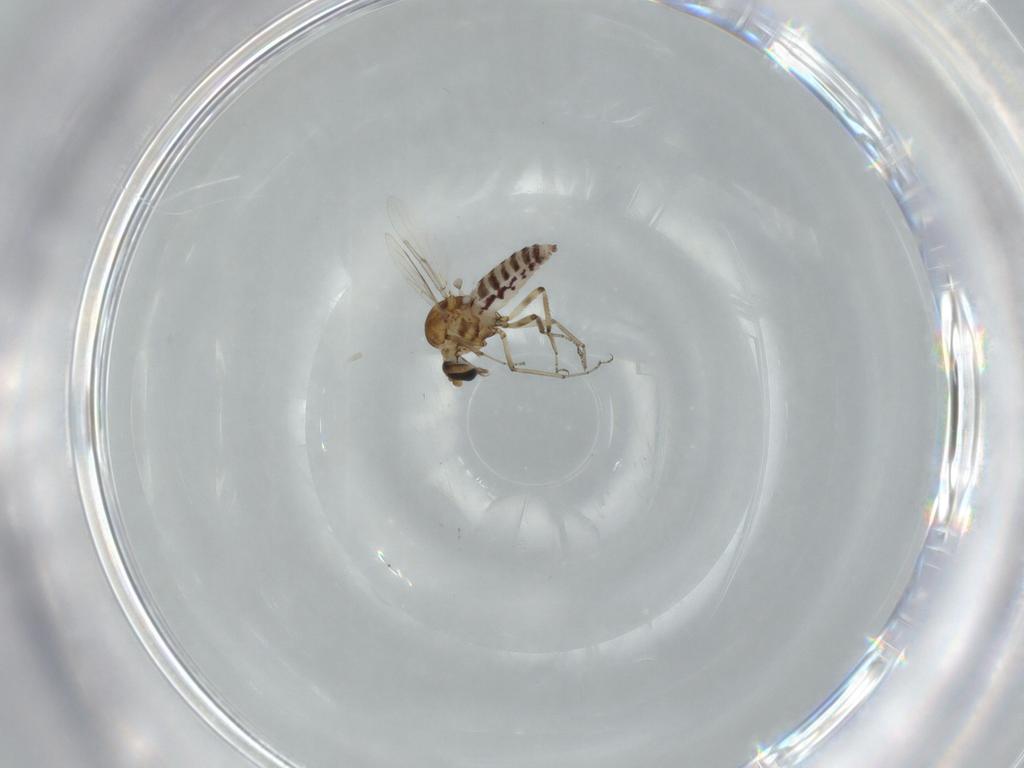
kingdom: Animalia
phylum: Arthropoda
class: Insecta
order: Diptera
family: Ceratopogonidae
